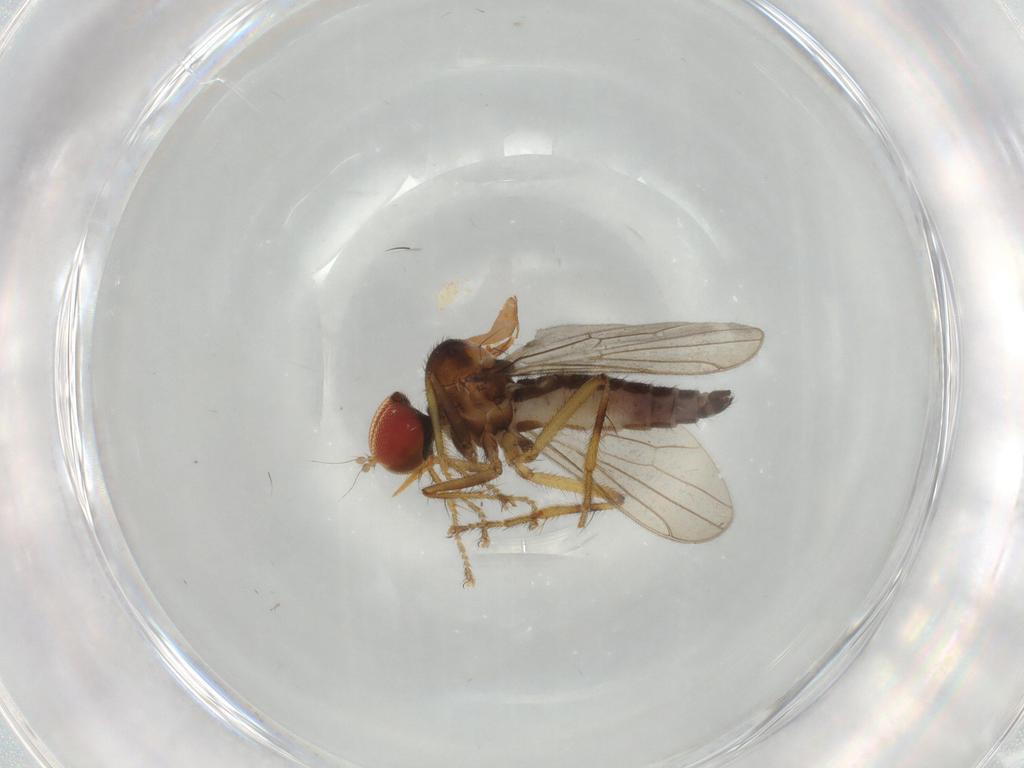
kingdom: Animalia
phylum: Arthropoda
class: Insecta
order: Diptera
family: Hybotidae
